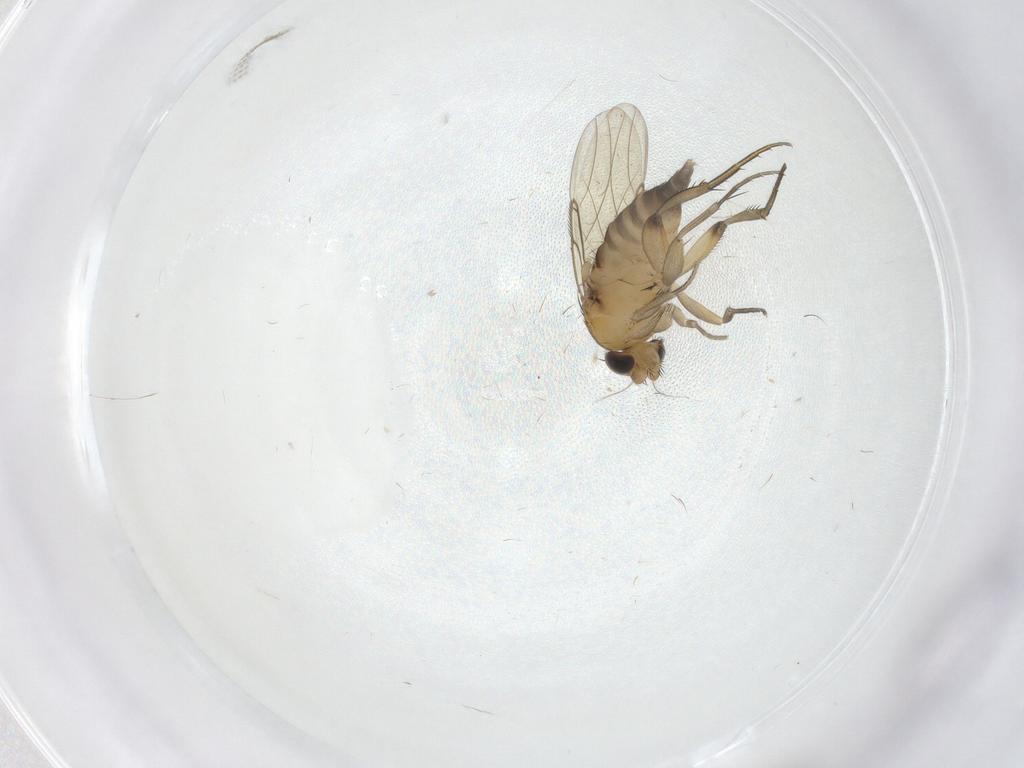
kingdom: Animalia
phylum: Arthropoda
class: Insecta
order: Diptera
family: Phoridae
